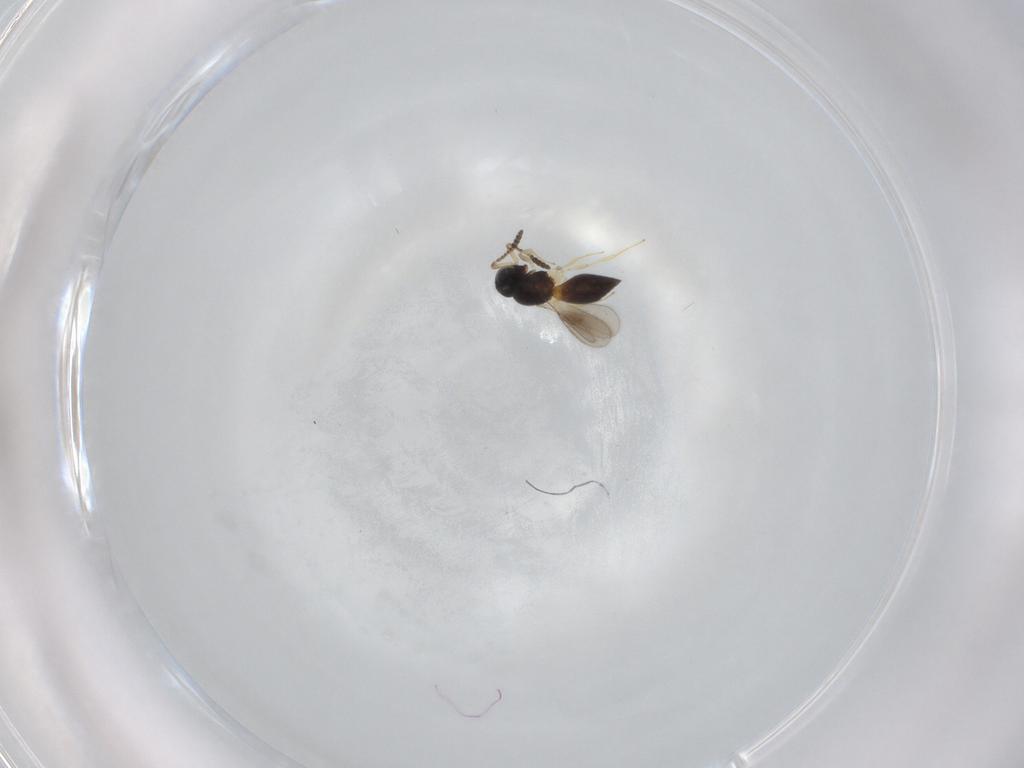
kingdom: Animalia
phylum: Arthropoda
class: Insecta
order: Hymenoptera
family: Scelionidae
